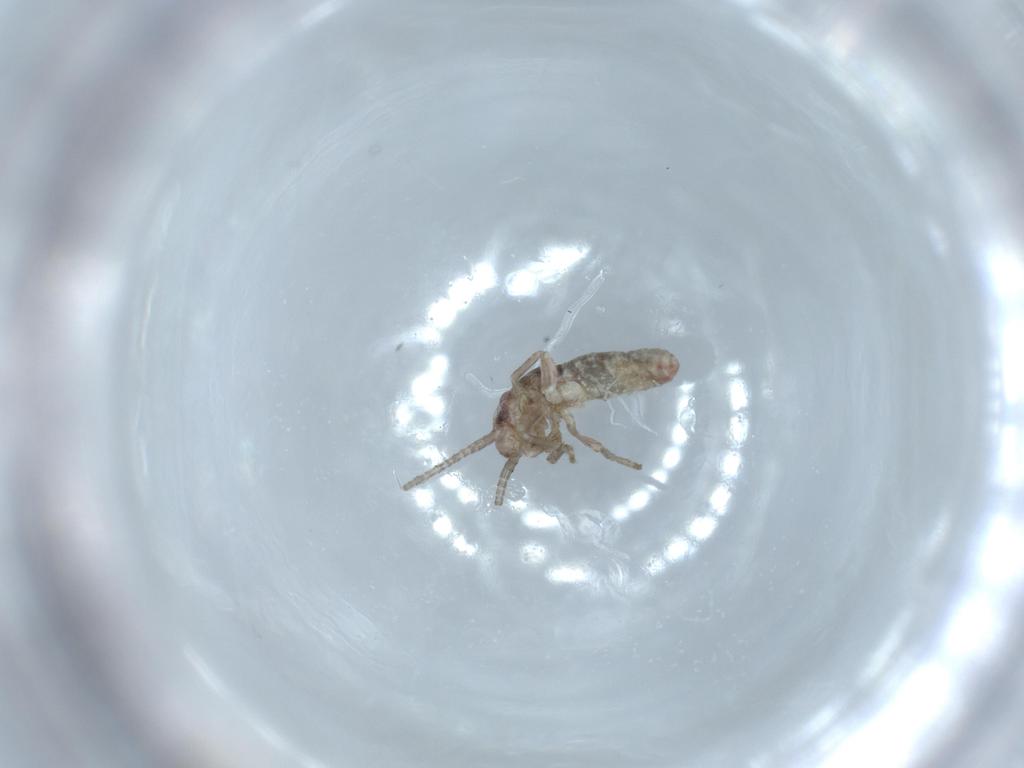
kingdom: Animalia
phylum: Arthropoda
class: Insecta
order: Orthoptera
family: Mogoplistidae
